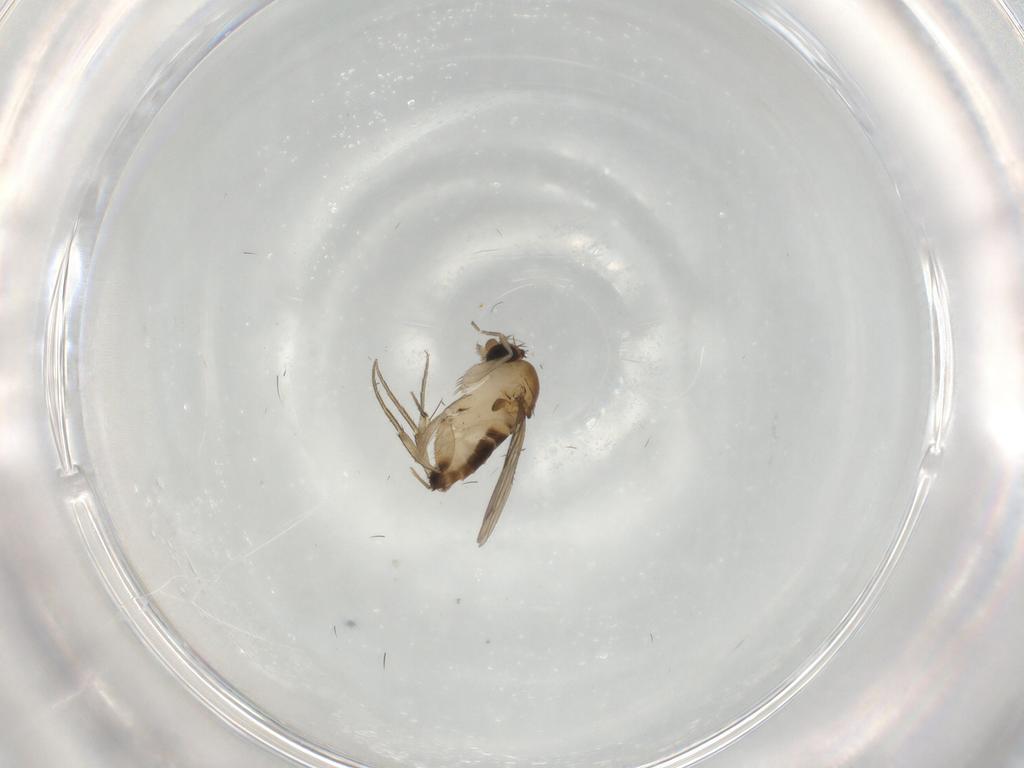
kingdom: Animalia
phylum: Arthropoda
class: Insecta
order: Diptera
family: Phoridae
